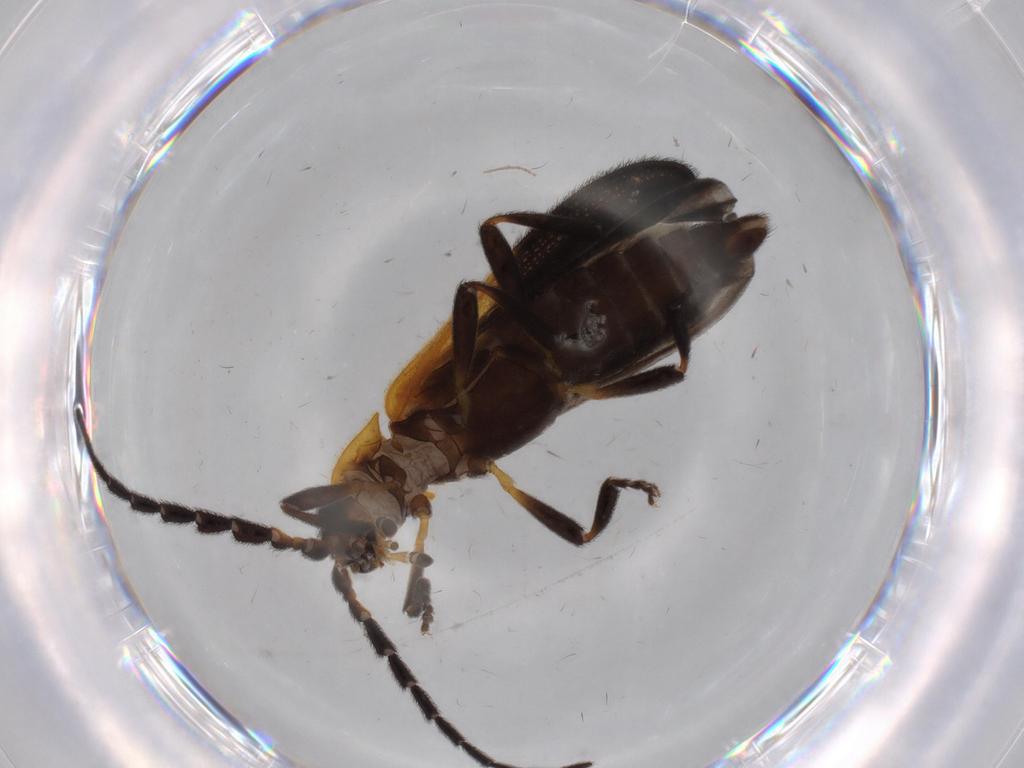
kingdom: Animalia
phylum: Arthropoda
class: Insecta
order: Coleoptera
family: Lycidae
